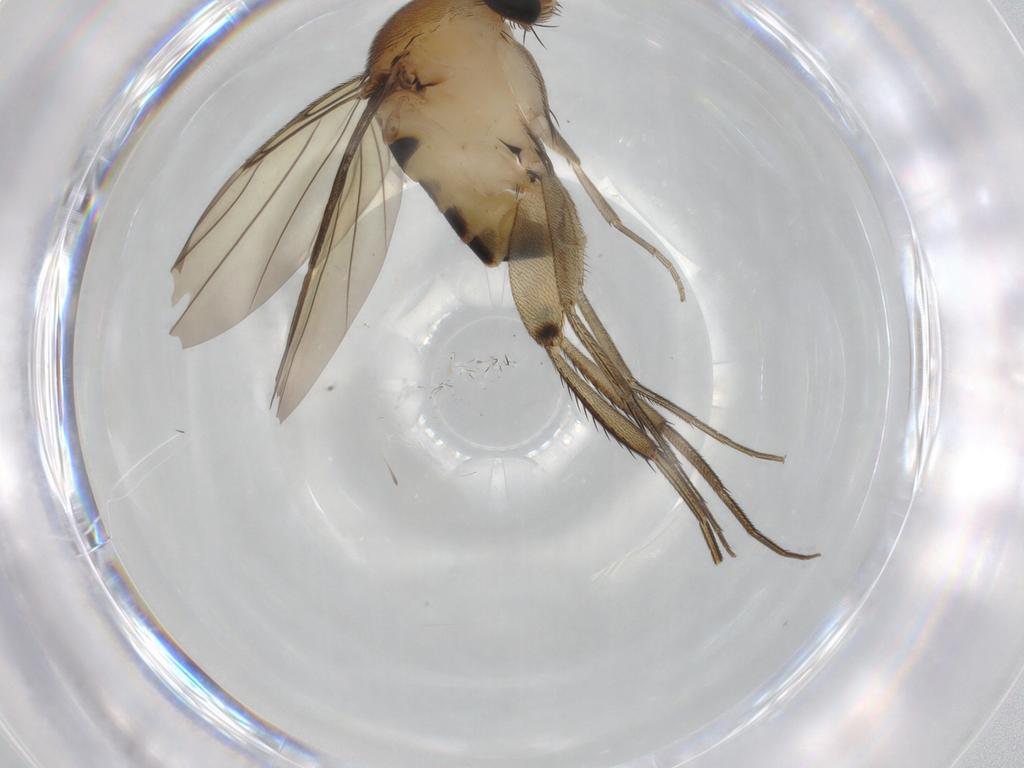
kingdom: Animalia
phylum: Arthropoda
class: Insecta
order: Diptera
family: Phoridae
